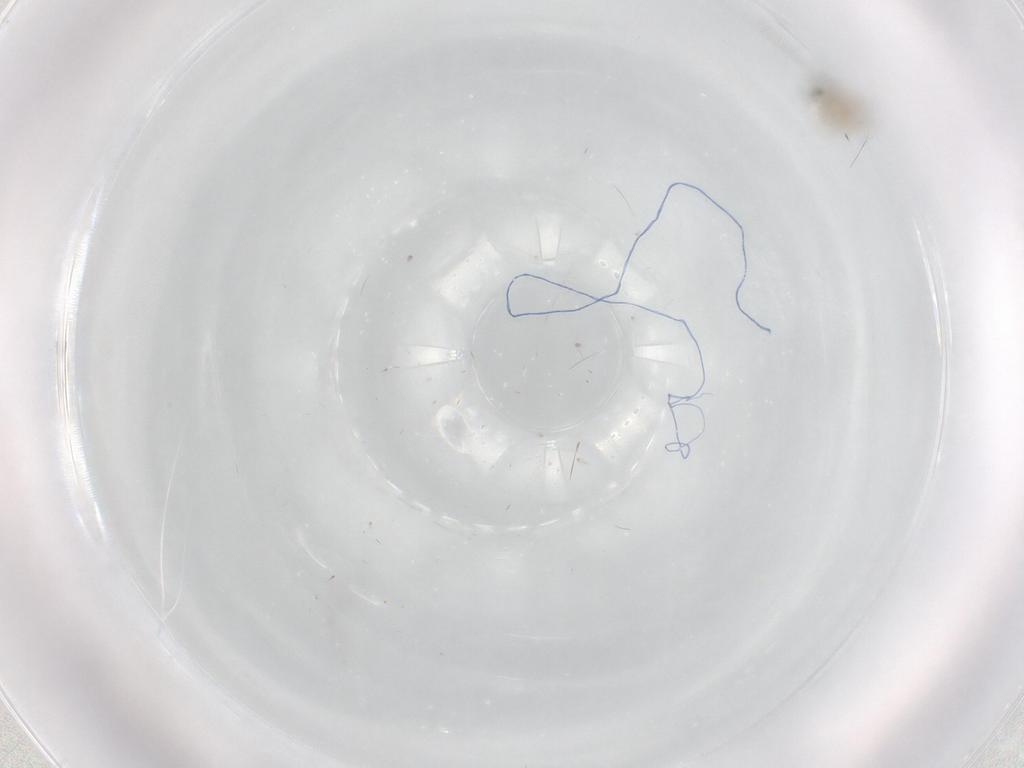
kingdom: Animalia
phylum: Arthropoda
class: Insecta
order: Diptera
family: Cecidomyiidae
